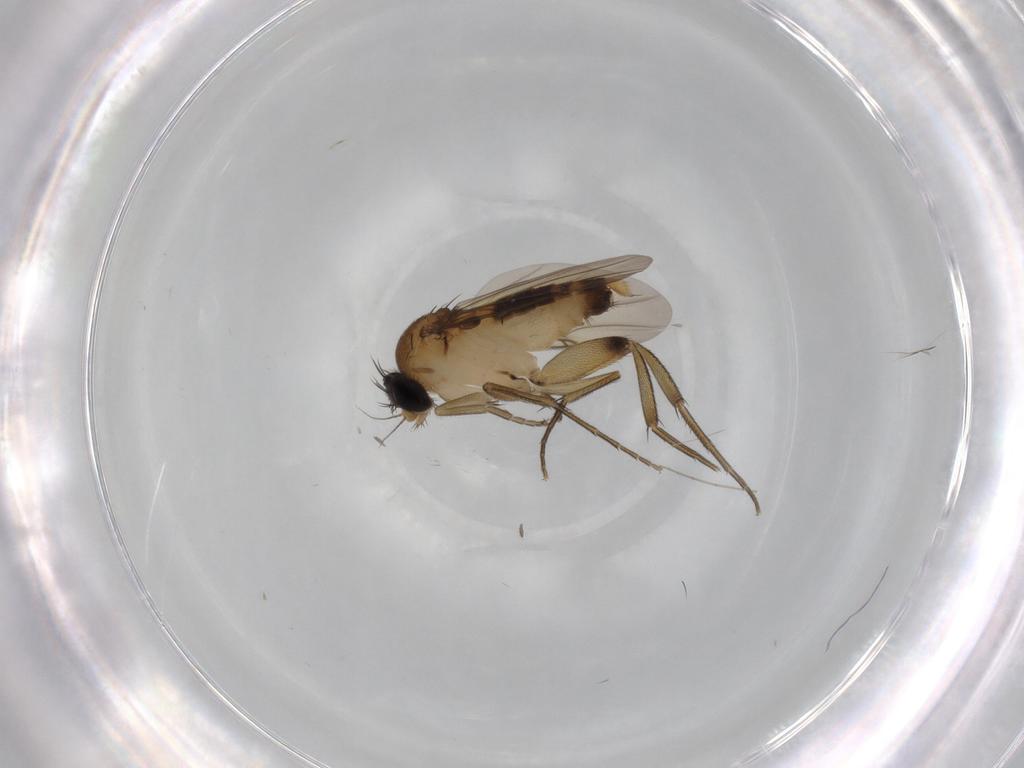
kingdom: Animalia
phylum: Arthropoda
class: Insecta
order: Diptera
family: Phoridae
